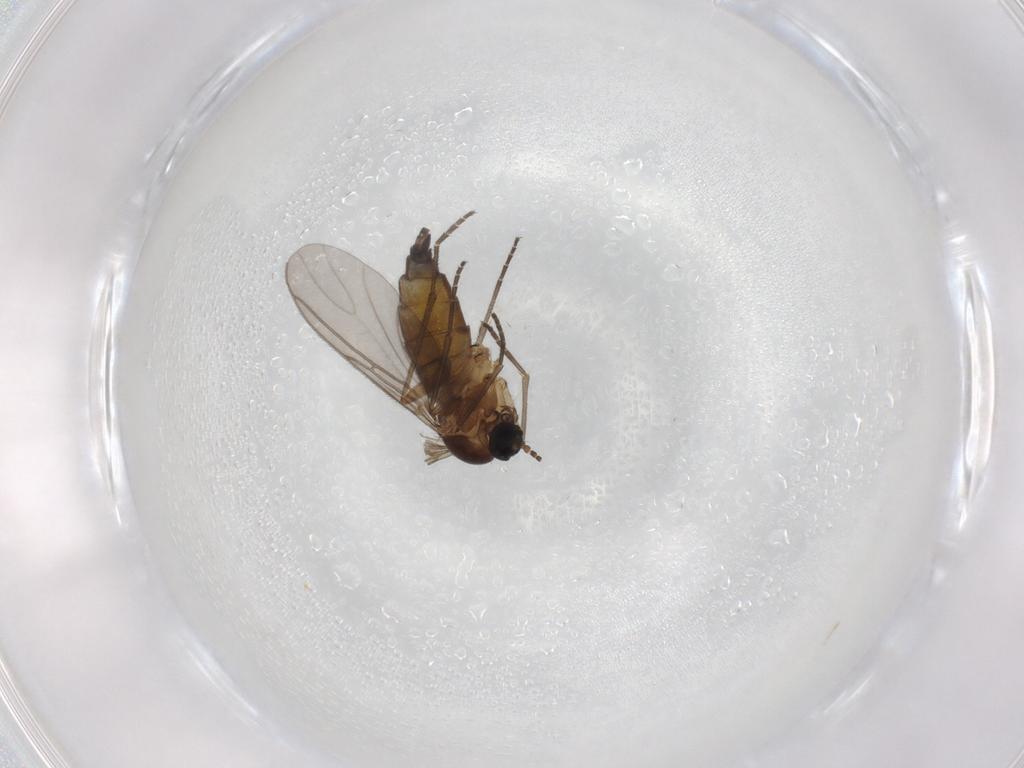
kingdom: Animalia
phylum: Arthropoda
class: Insecta
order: Diptera
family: Sciaridae
